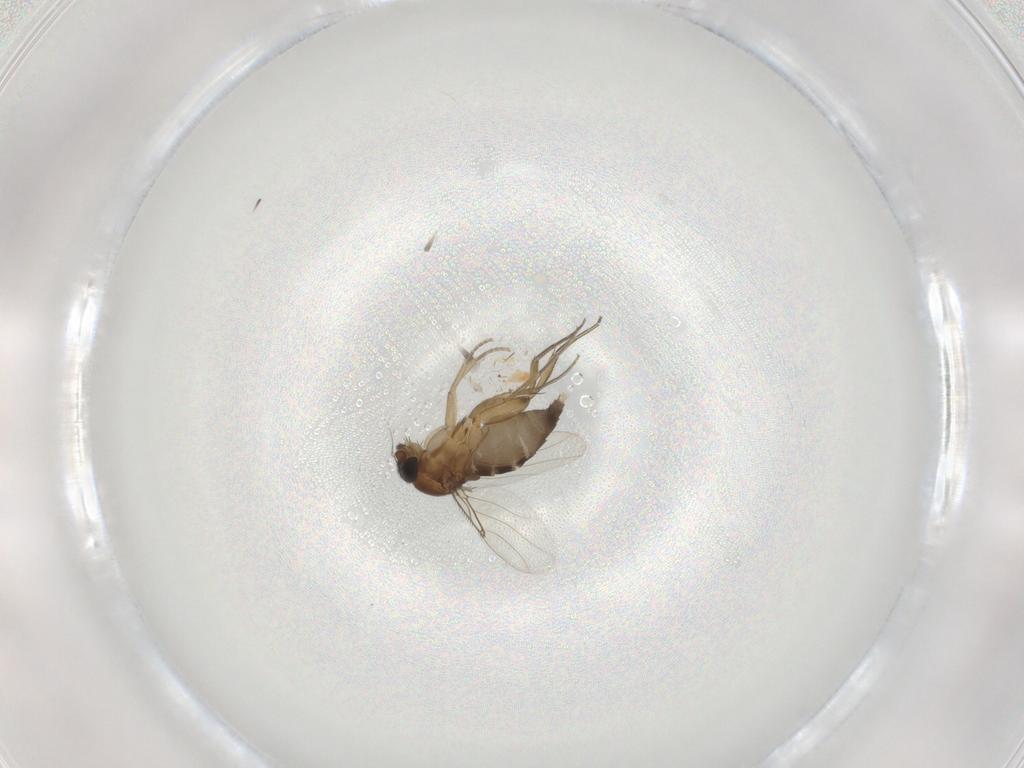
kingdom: Animalia
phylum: Arthropoda
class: Insecta
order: Diptera
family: Phoridae
